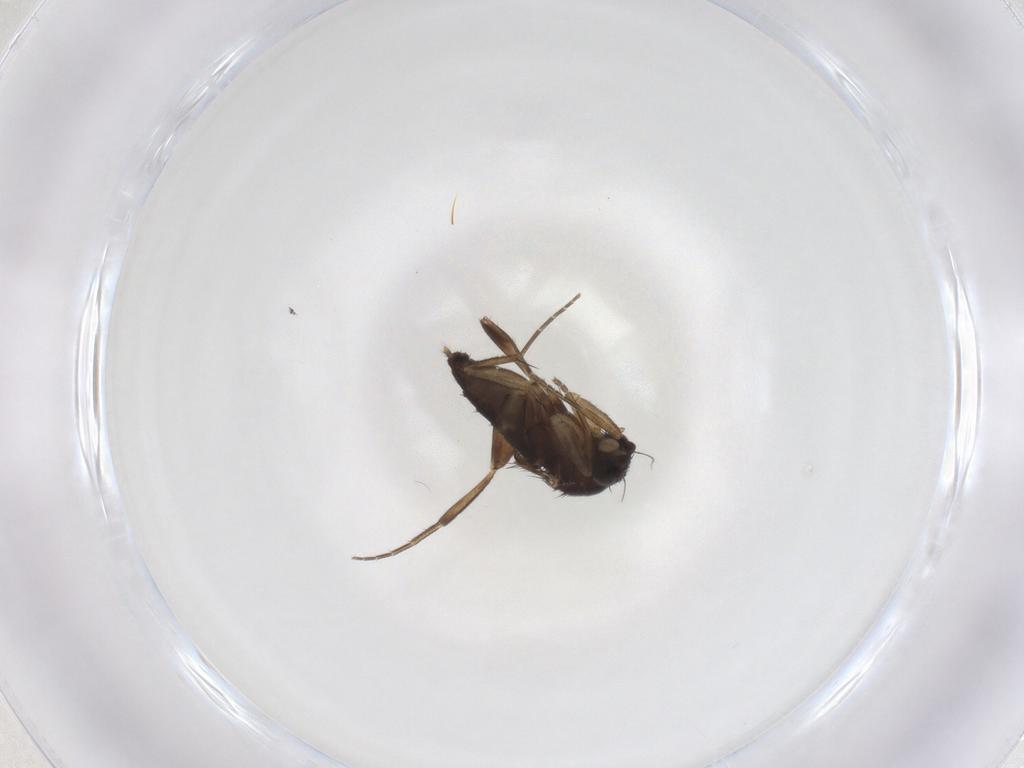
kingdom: Animalia
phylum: Arthropoda
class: Insecta
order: Diptera
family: Phoridae
